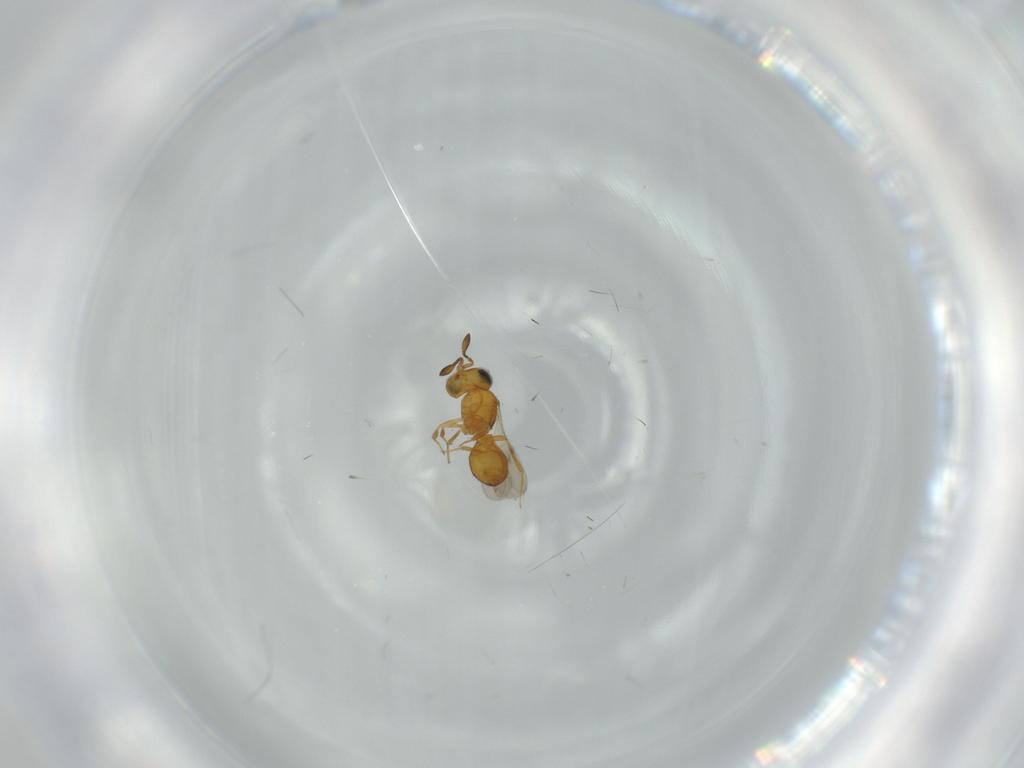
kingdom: Animalia
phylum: Arthropoda
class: Insecta
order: Hymenoptera
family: Scelionidae
